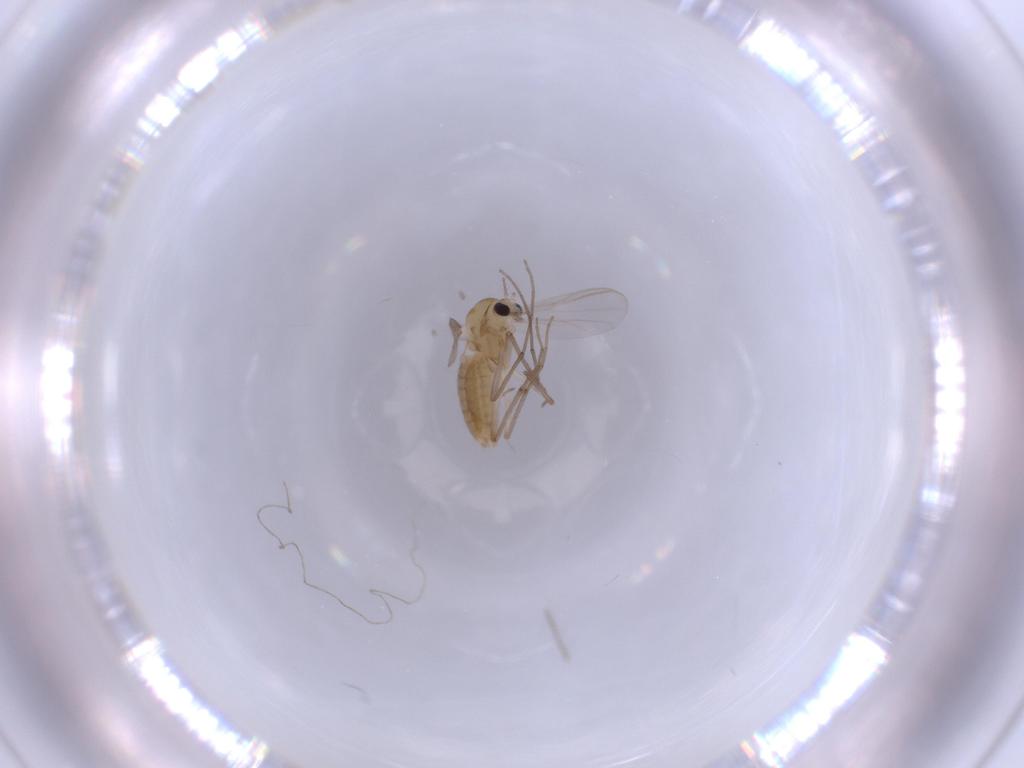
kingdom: Animalia
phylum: Arthropoda
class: Insecta
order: Diptera
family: Chironomidae
